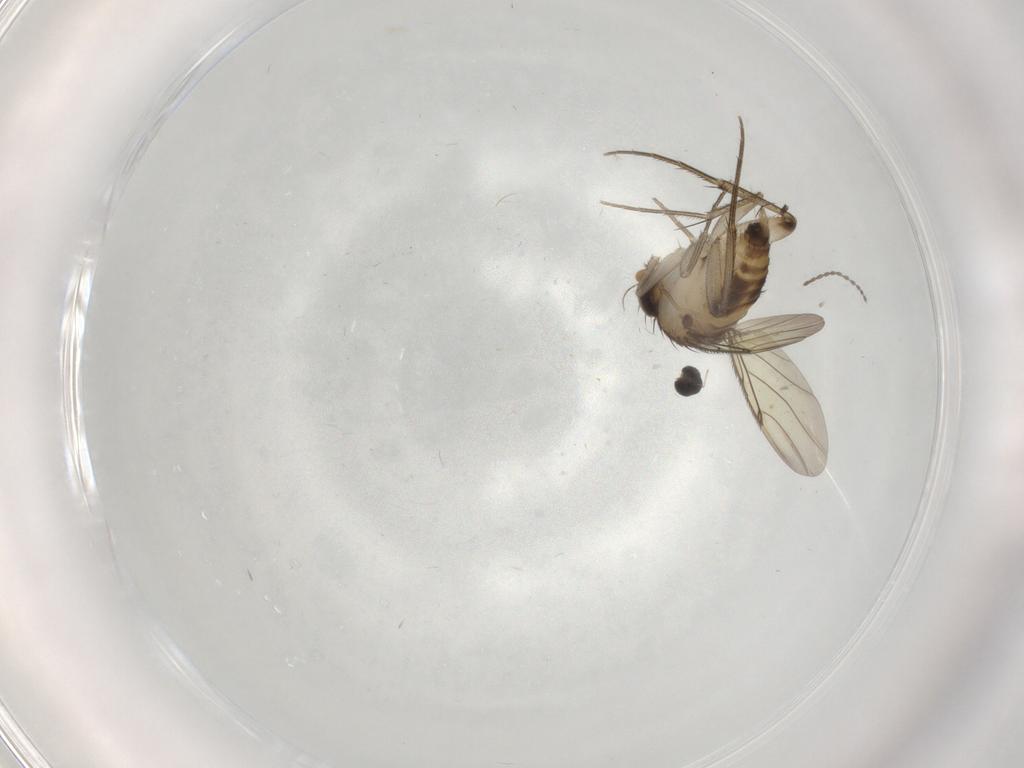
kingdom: Animalia
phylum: Arthropoda
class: Insecta
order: Diptera
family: Phoridae
